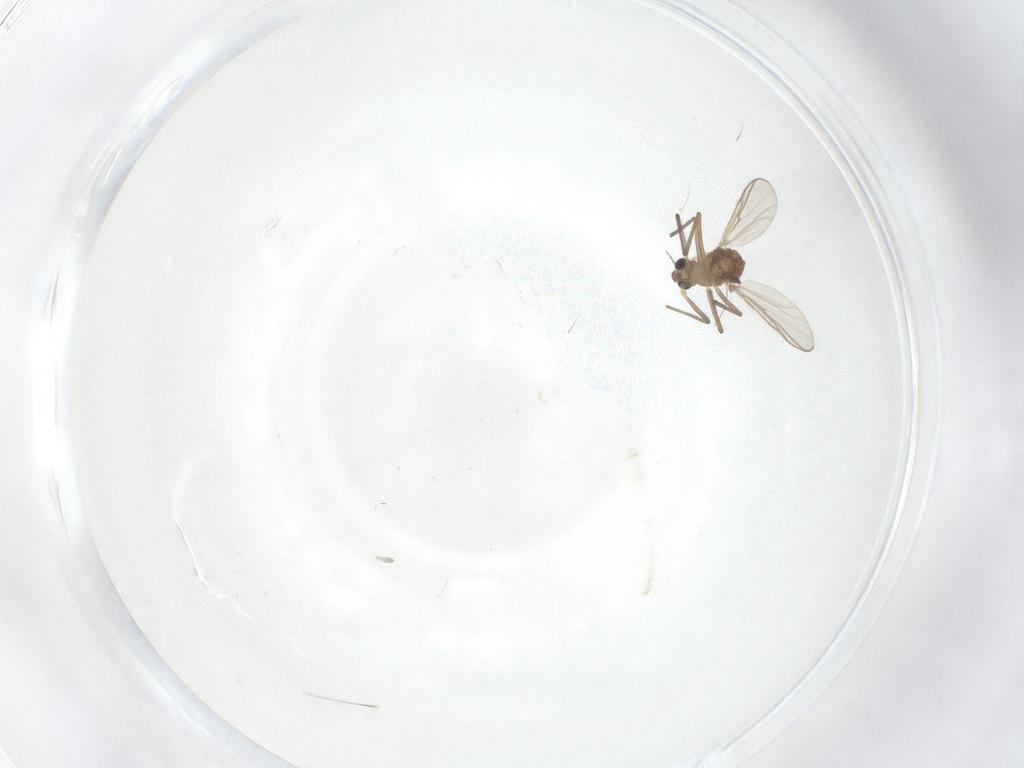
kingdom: Animalia
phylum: Arthropoda
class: Insecta
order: Diptera
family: Chironomidae
